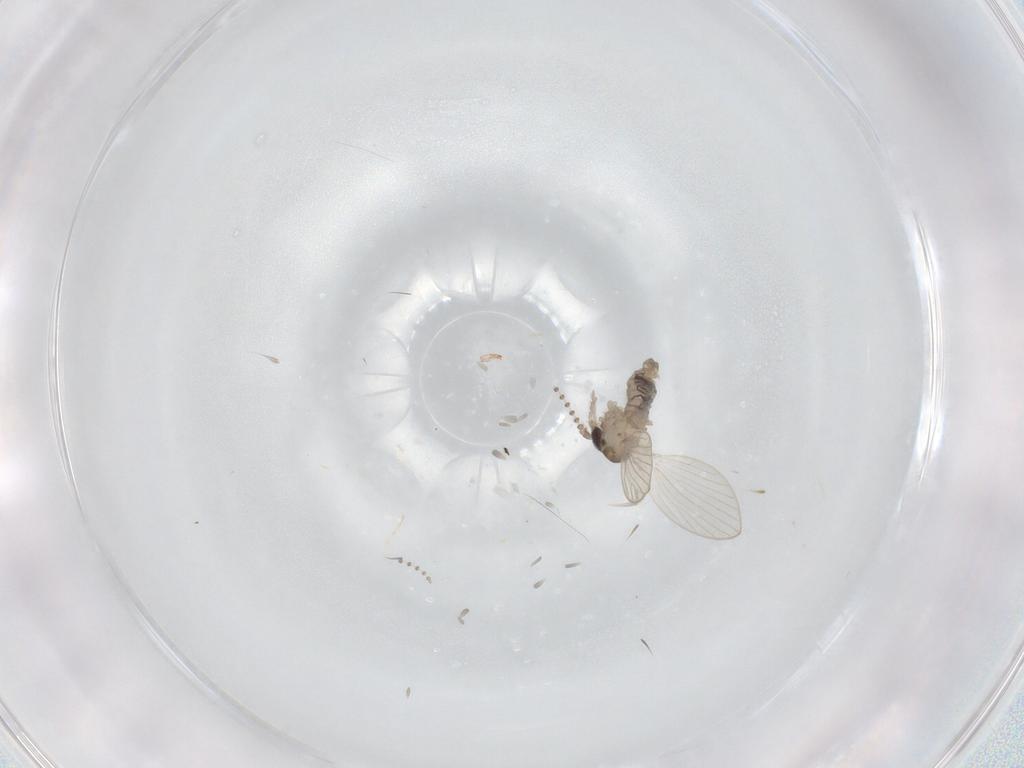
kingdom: Animalia
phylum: Arthropoda
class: Insecta
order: Diptera
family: Psychodidae
